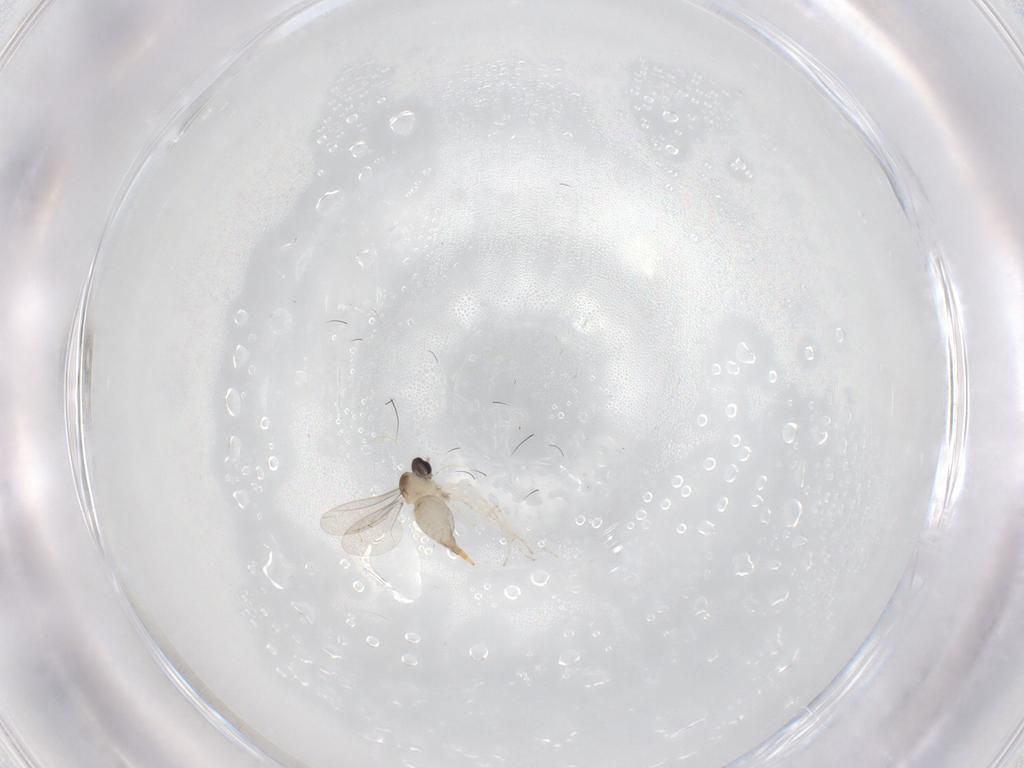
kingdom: Animalia
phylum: Arthropoda
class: Insecta
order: Diptera
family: Cecidomyiidae
